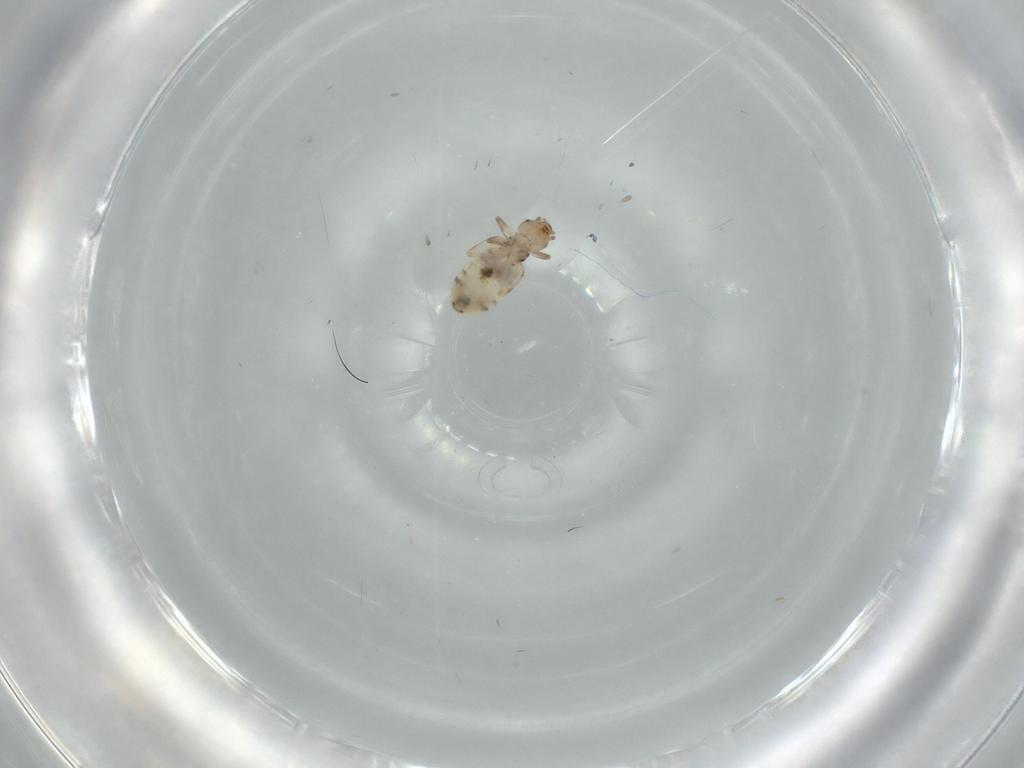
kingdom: Animalia
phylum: Arthropoda
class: Insecta
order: Psocodea
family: Liposcelididae
